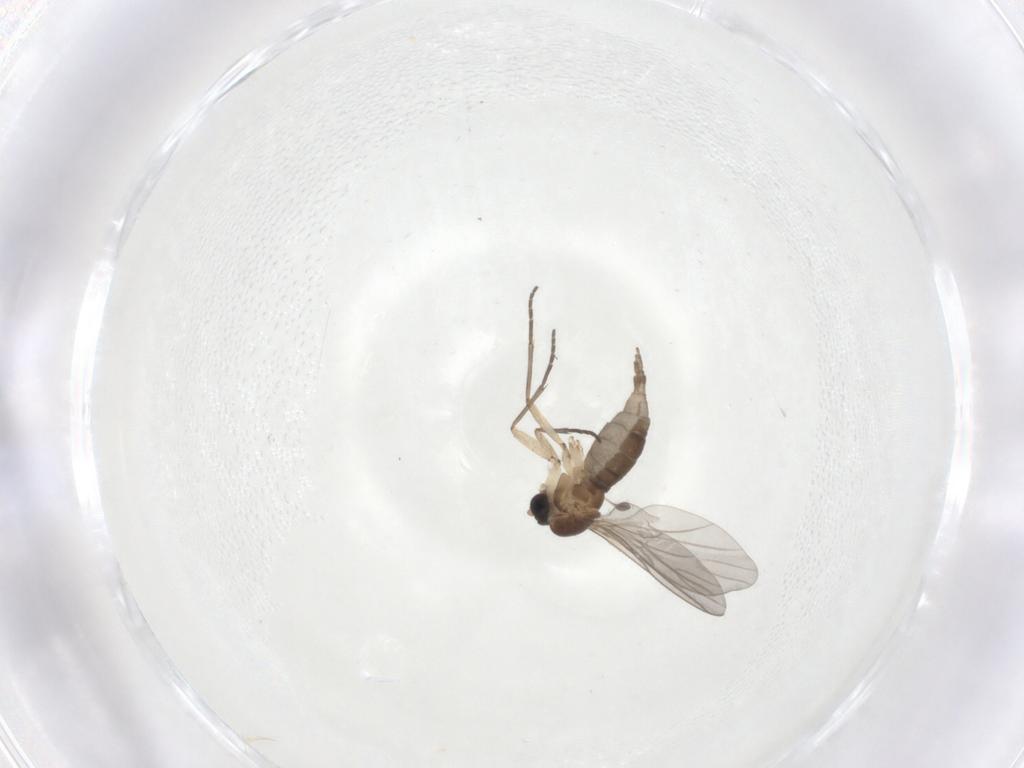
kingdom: Animalia
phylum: Arthropoda
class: Insecta
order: Diptera
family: Sciaridae
